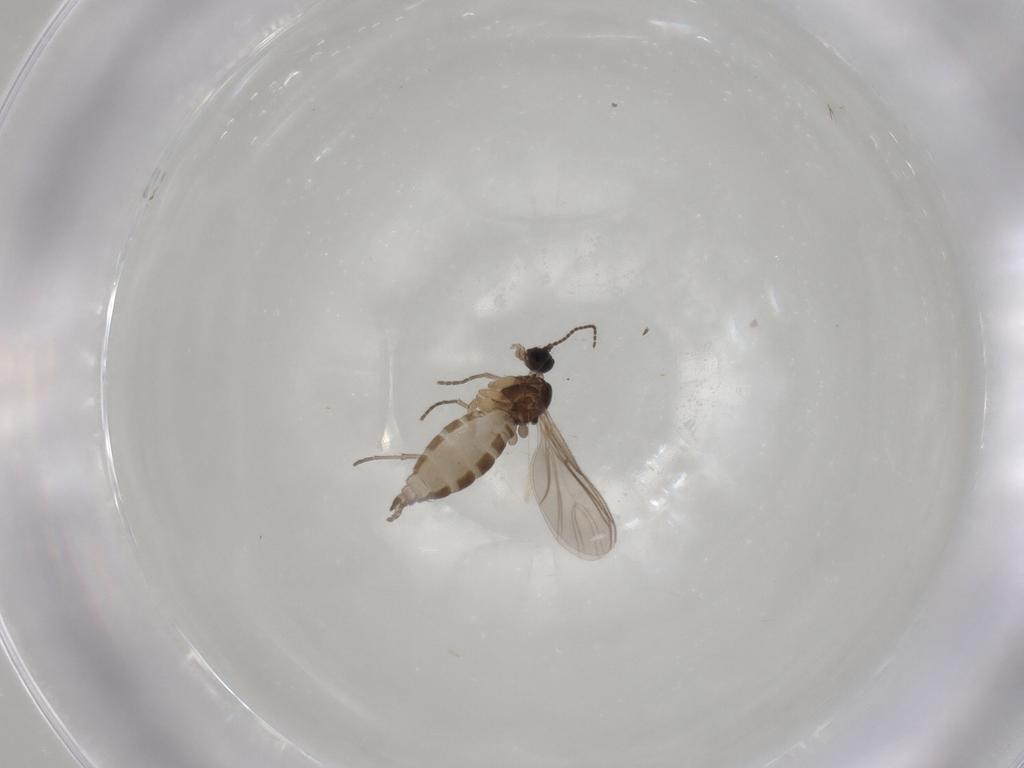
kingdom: Animalia
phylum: Arthropoda
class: Insecta
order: Diptera
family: Sciaridae
